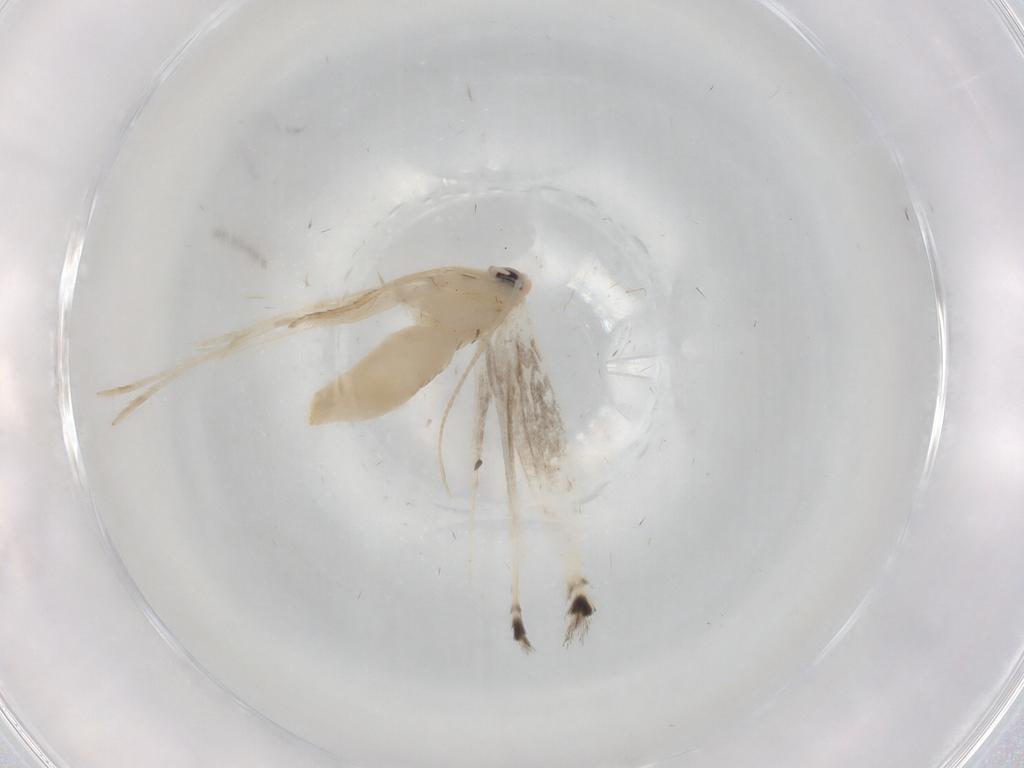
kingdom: Animalia
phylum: Arthropoda
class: Insecta
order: Lepidoptera
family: Gracillariidae
